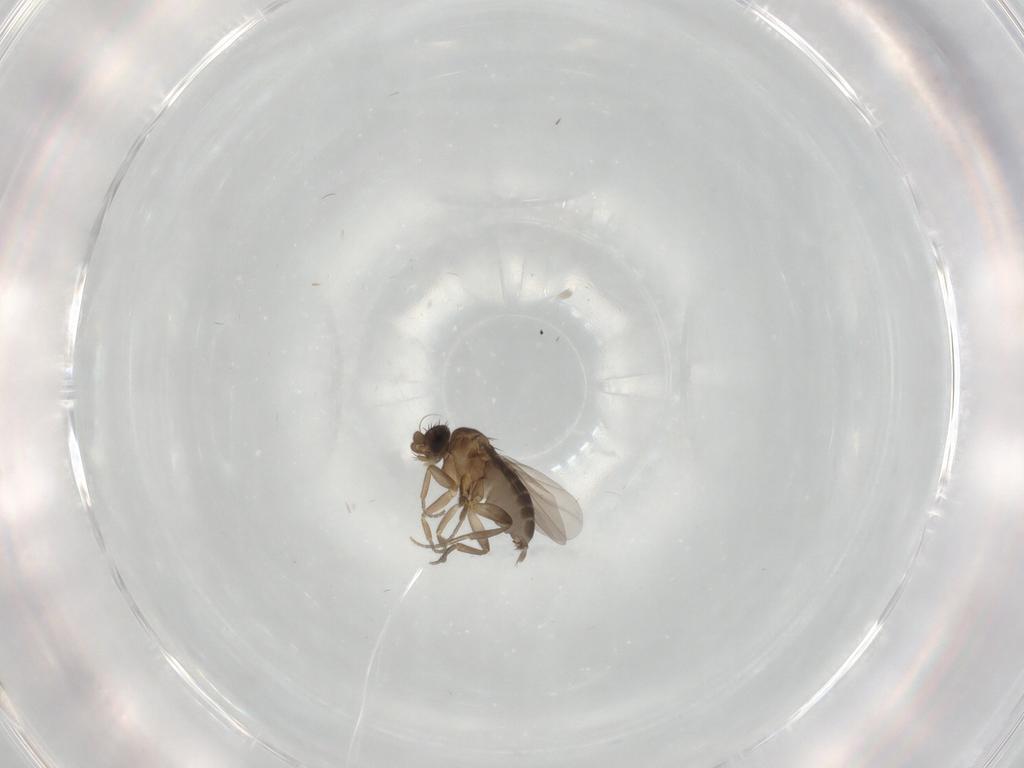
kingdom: Animalia
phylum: Arthropoda
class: Insecta
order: Diptera
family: Phoridae
